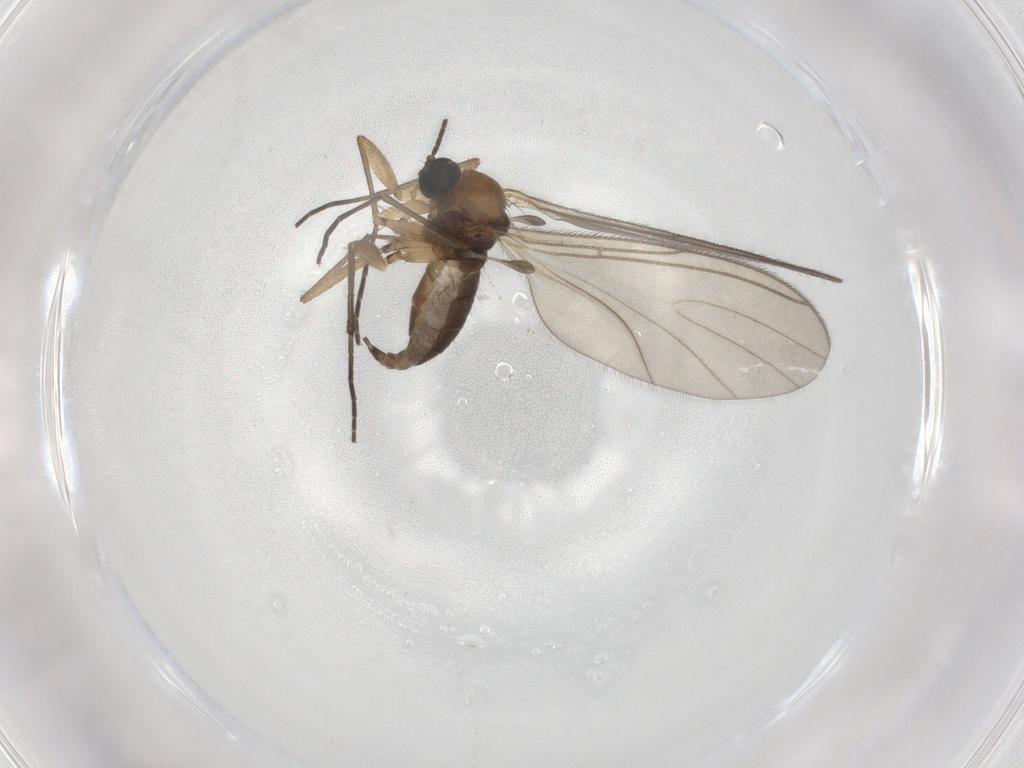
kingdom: Animalia
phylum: Arthropoda
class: Insecta
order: Diptera
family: Sciaridae
